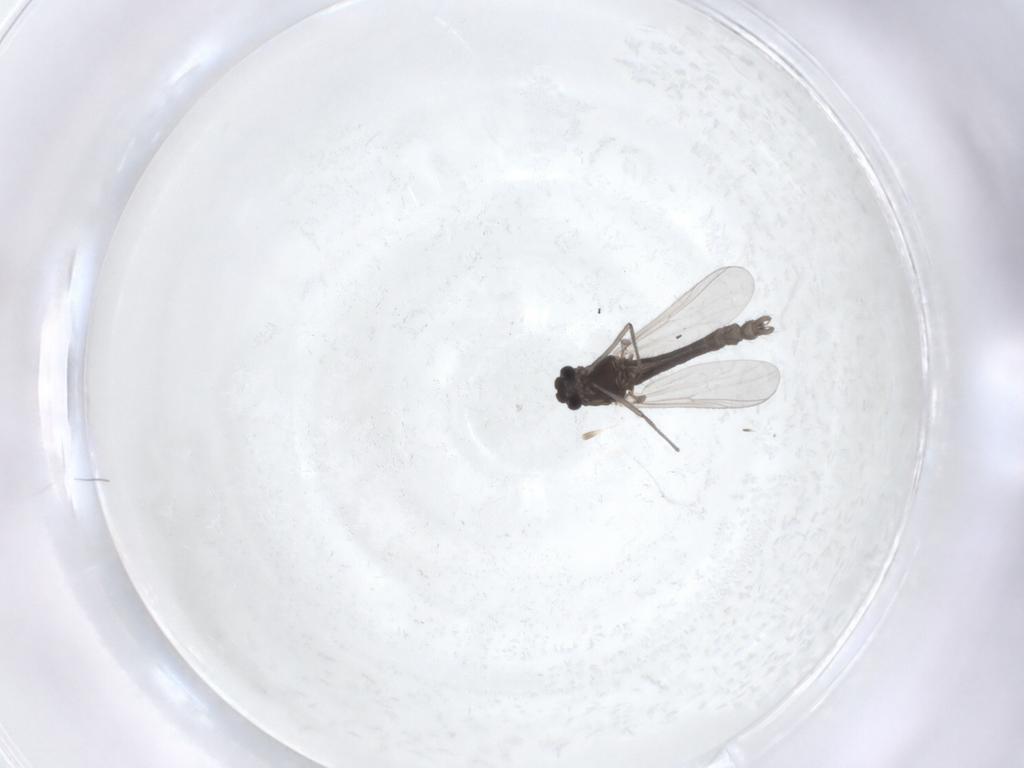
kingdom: Animalia
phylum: Arthropoda
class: Insecta
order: Diptera
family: Chironomidae
